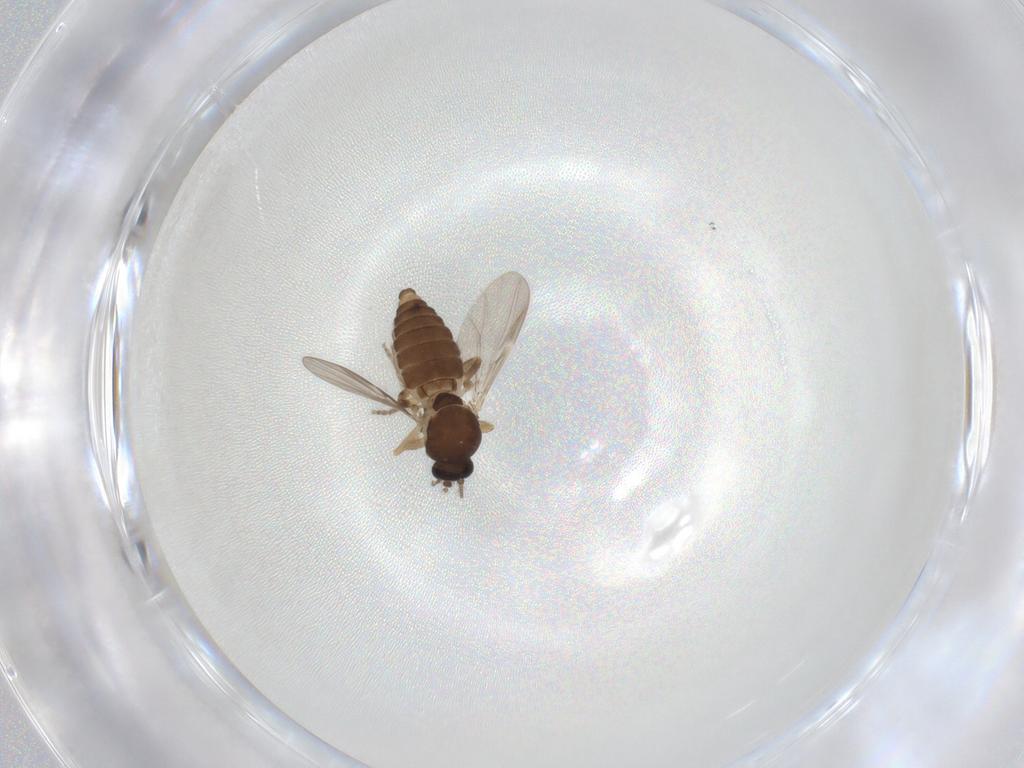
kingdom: Animalia
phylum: Arthropoda
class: Insecta
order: Diptera
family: Ceratopogonidae
